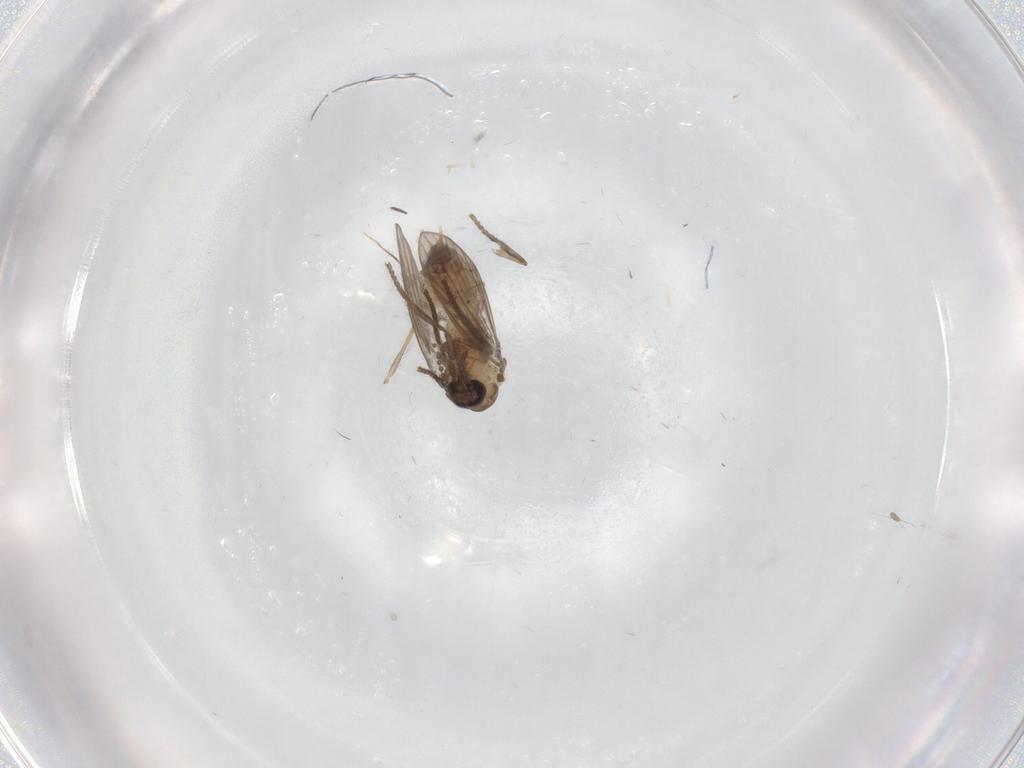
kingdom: Animalia
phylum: Arthropoda
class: Insecta
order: Diptera
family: Psychodidae
